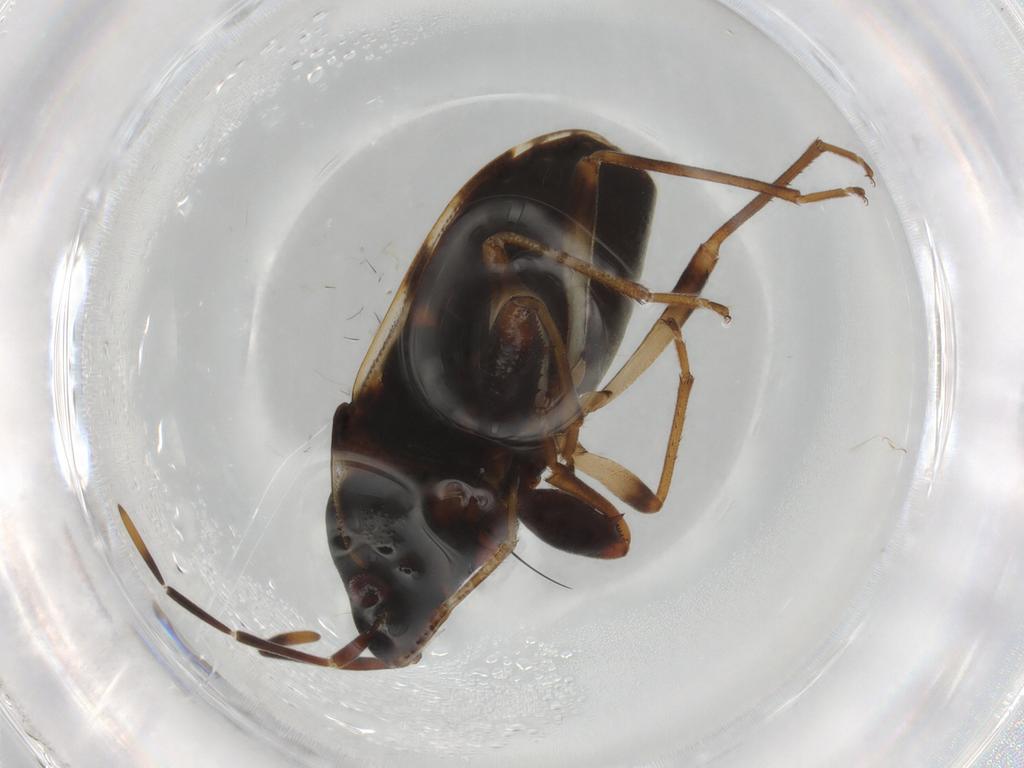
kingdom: Animalia
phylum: Arthropoda
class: Insecta
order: Hemiptera
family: Rhyparochromidae
